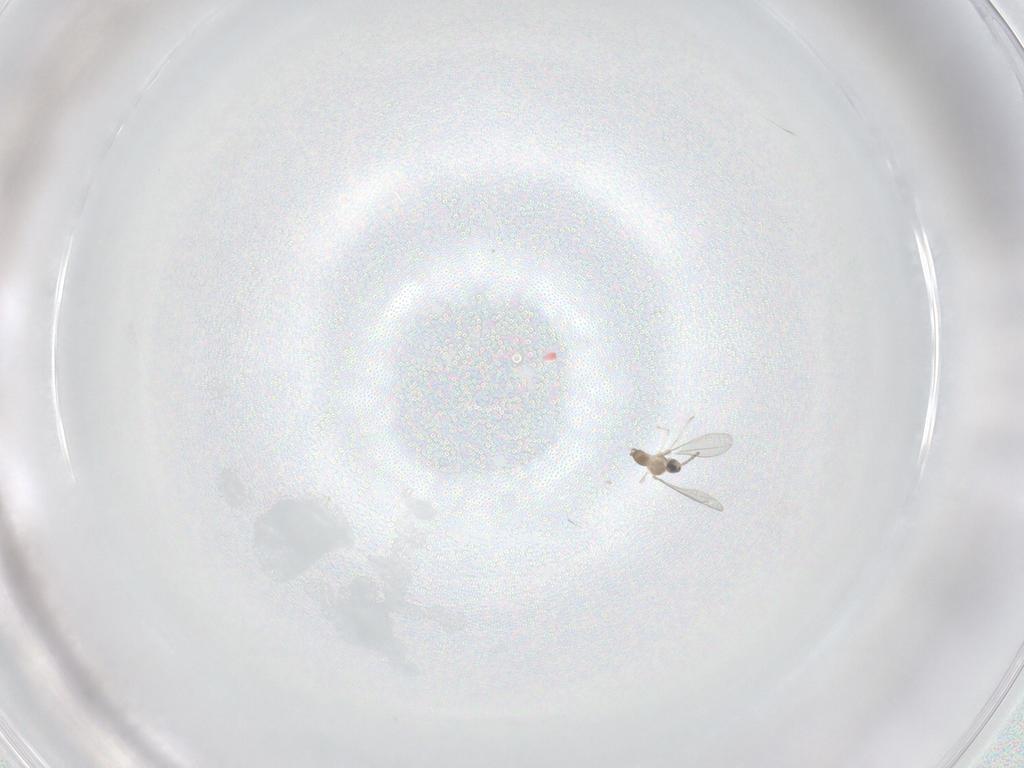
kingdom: Animalia
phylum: Arthropoda
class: Insecta
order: Diptera
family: Cecidomyiidae
